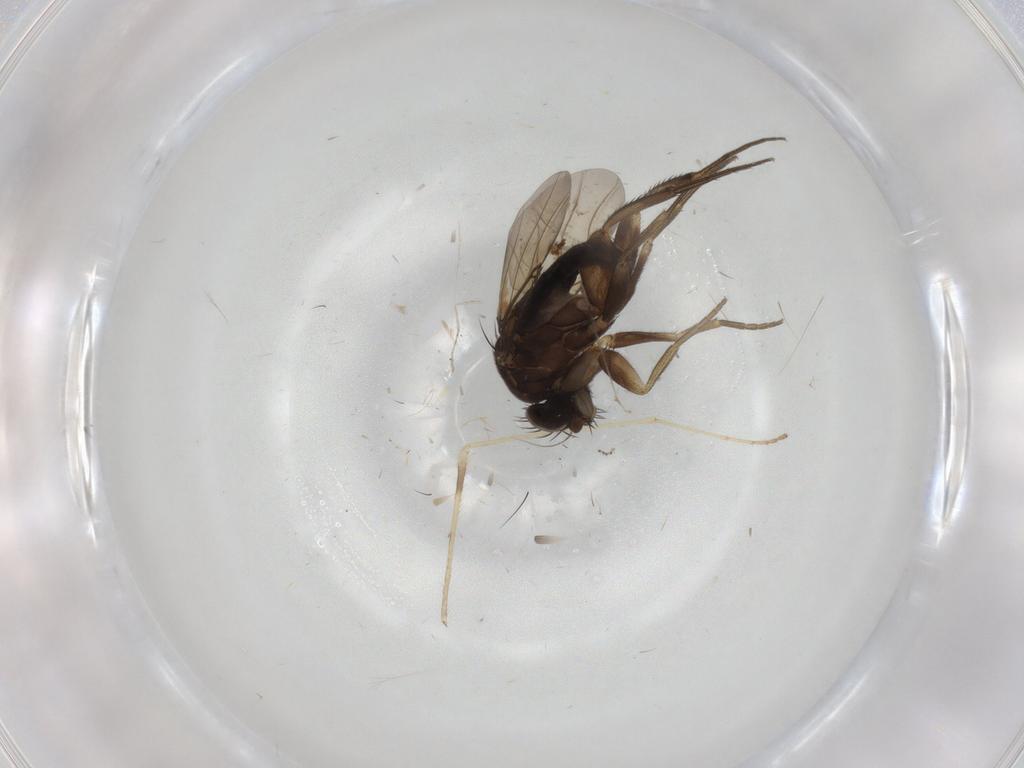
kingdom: Animalia
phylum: Arthropoda
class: Insecta
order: Diptera
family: Limoniidae
